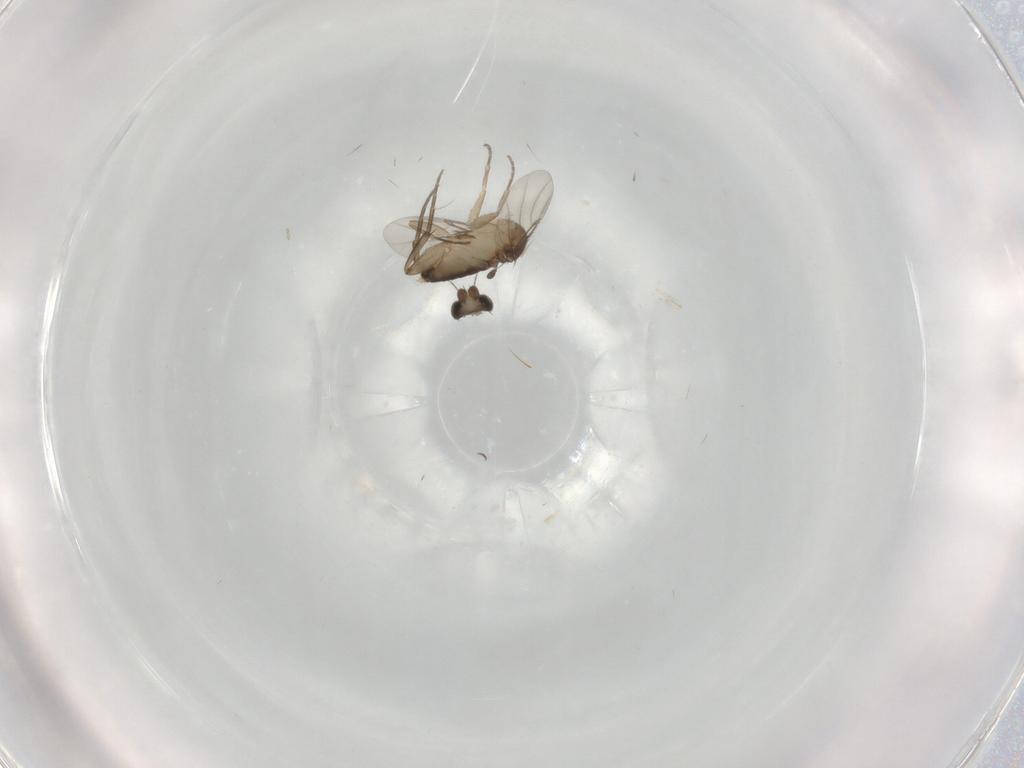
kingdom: Animalia
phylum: Arthropoda
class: Insecta
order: Diptera
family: Phoridae
